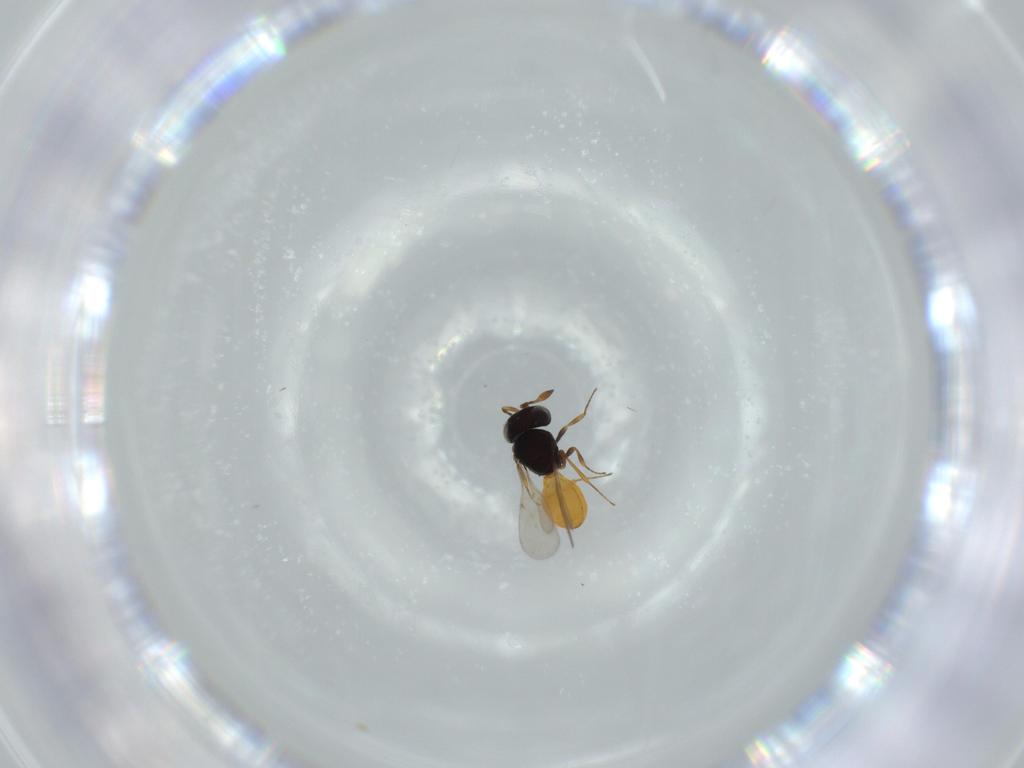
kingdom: Animalia
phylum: Arthropoda
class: Insecta
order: Hymenoptera
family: Scelionidae
